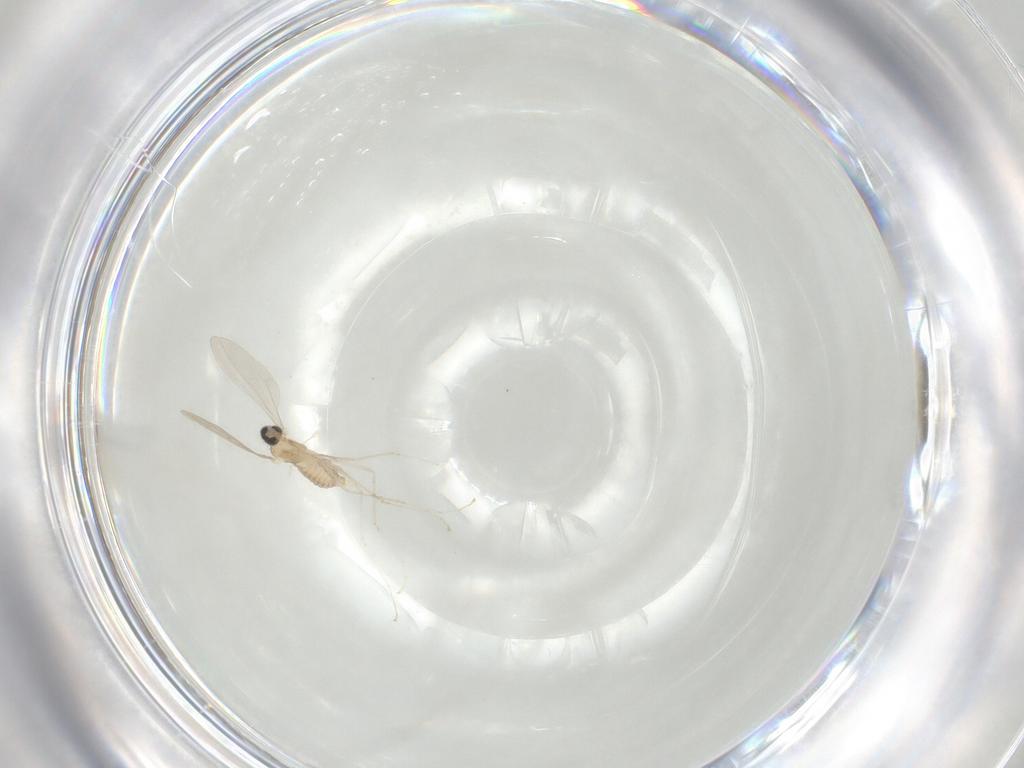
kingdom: Animalia
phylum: Arthropoda
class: Insecta
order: Diptera
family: Cecidomyiidae
